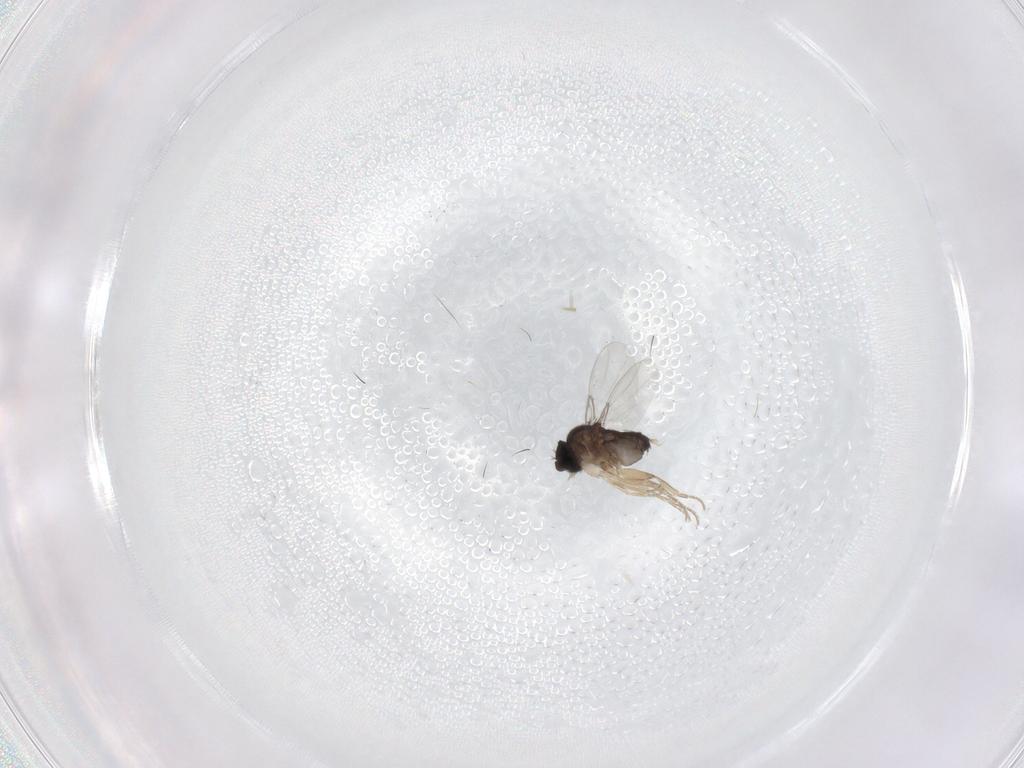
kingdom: Animalia
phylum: Arthropoda
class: Insecta
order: Diptera
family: Phoridae
